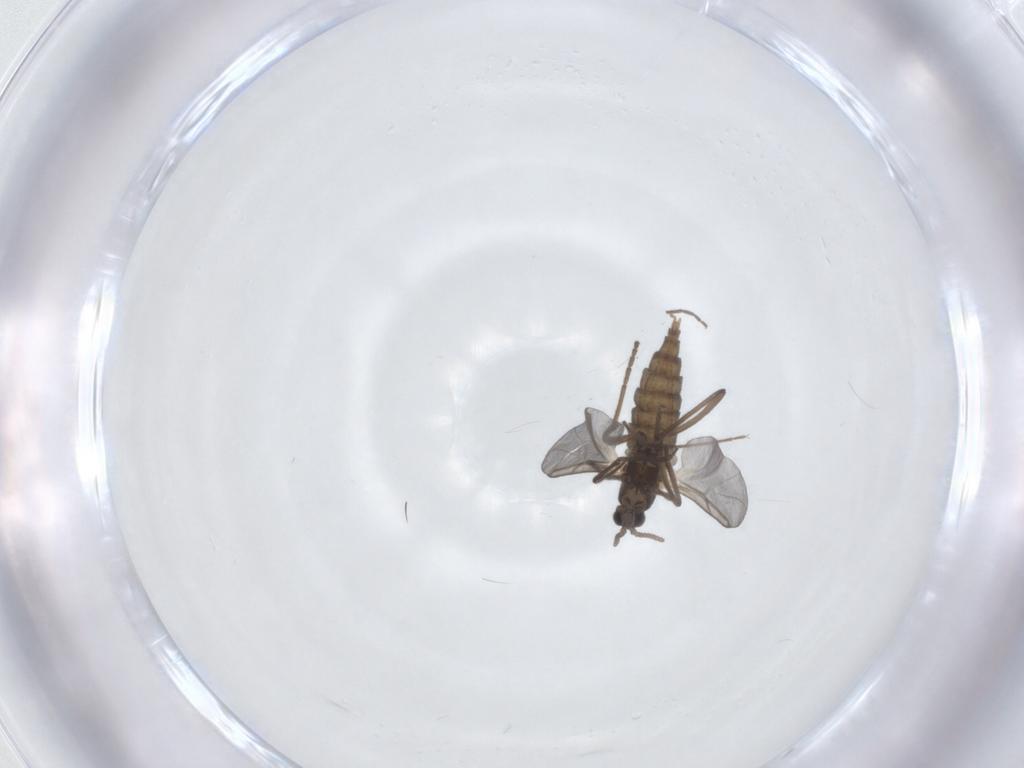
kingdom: Animalia
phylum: Arthropoda
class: Insecta
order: Diptera
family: Cecidomyiidae
